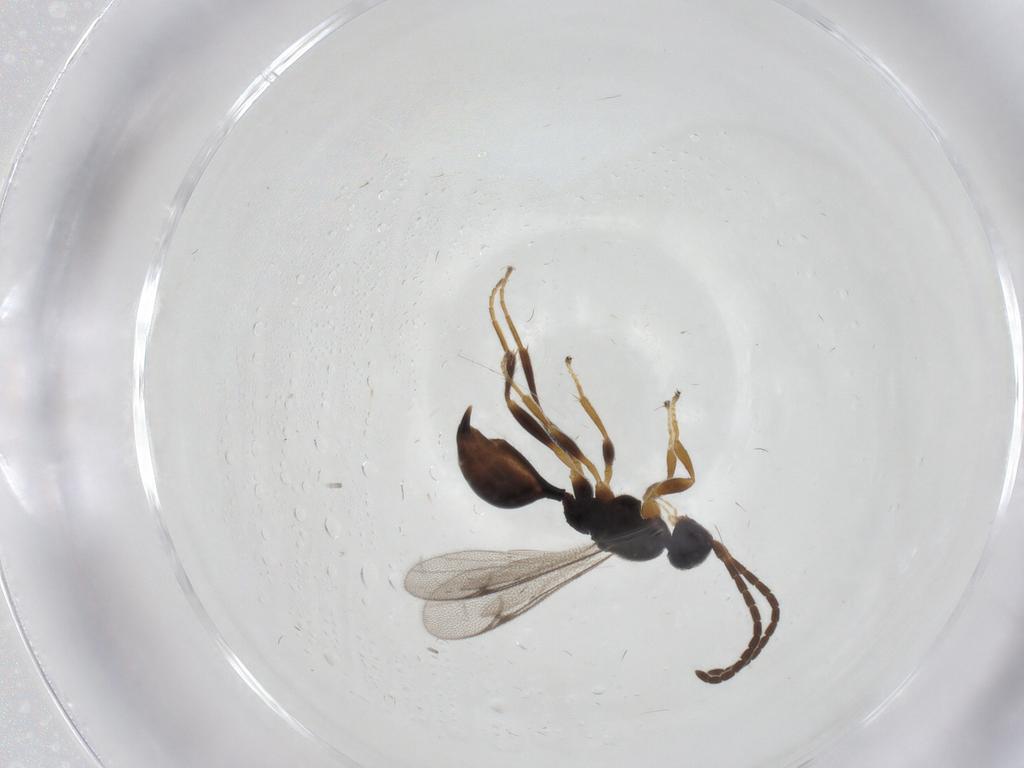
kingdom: Animalia
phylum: Arthropoda
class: Insecta
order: Hymenoptera
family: Proctotrupidae
